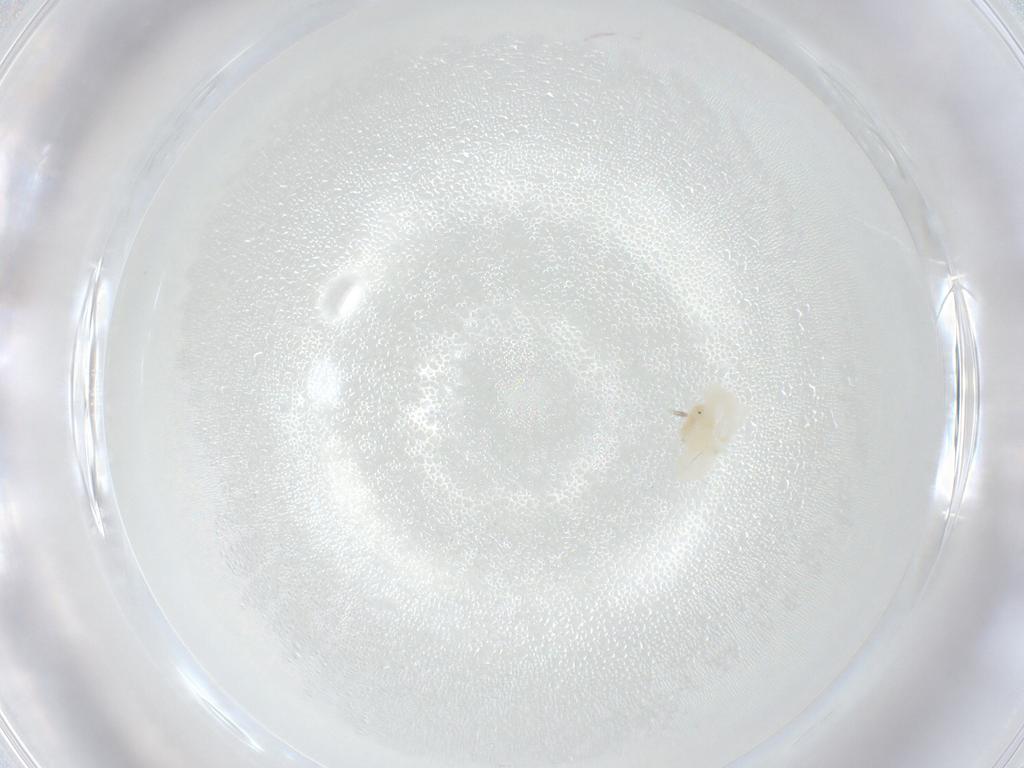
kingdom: Animalia
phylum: Arthropoda
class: Arachnida
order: Trombidiformes
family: Anystidae
